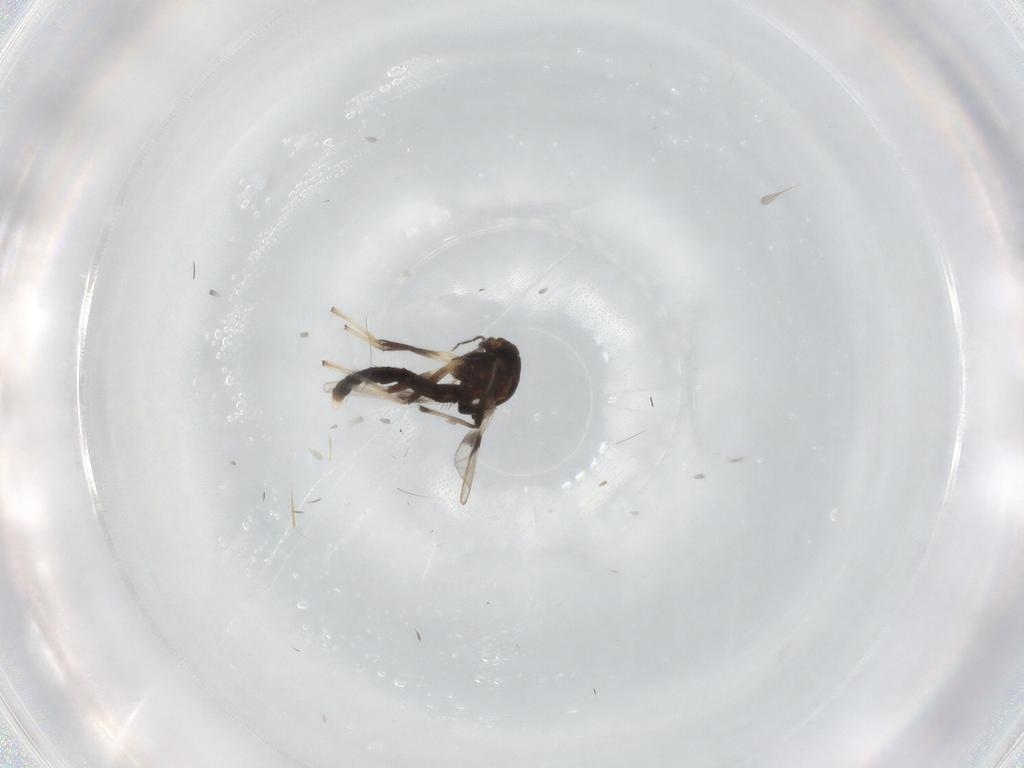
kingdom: Animalia
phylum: Arthropoda
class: Insecta
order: Diptera
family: Chironomidae
